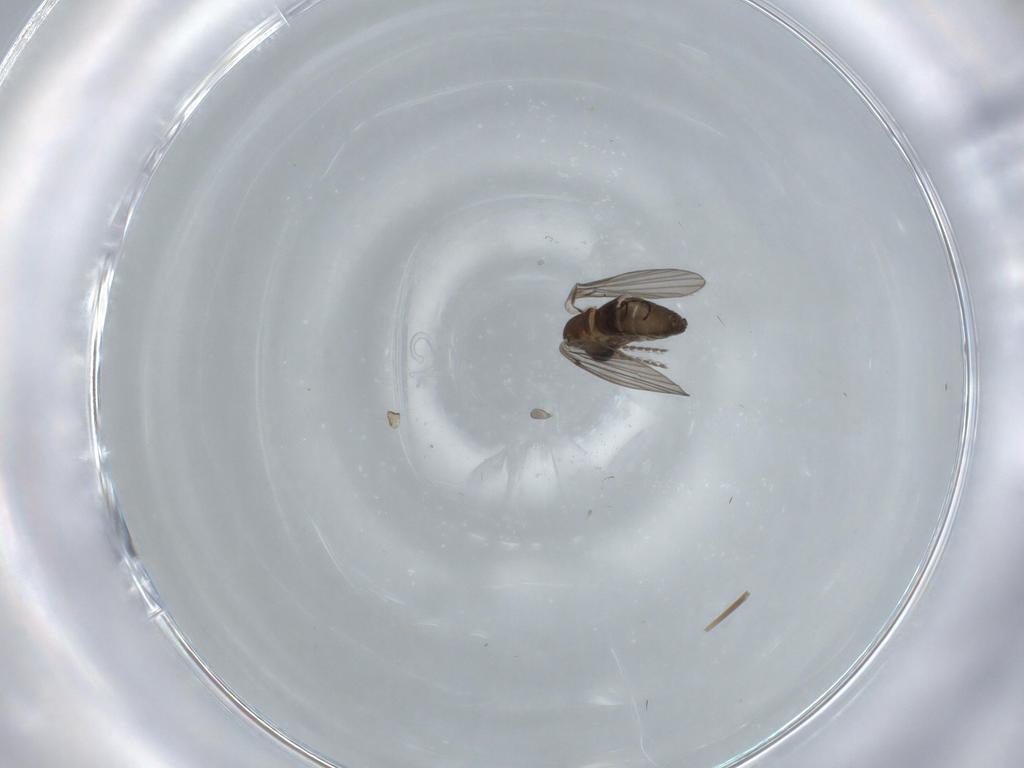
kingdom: Animalia
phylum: Arthropoda
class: Insecta
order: Diptera
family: Psychodidae
